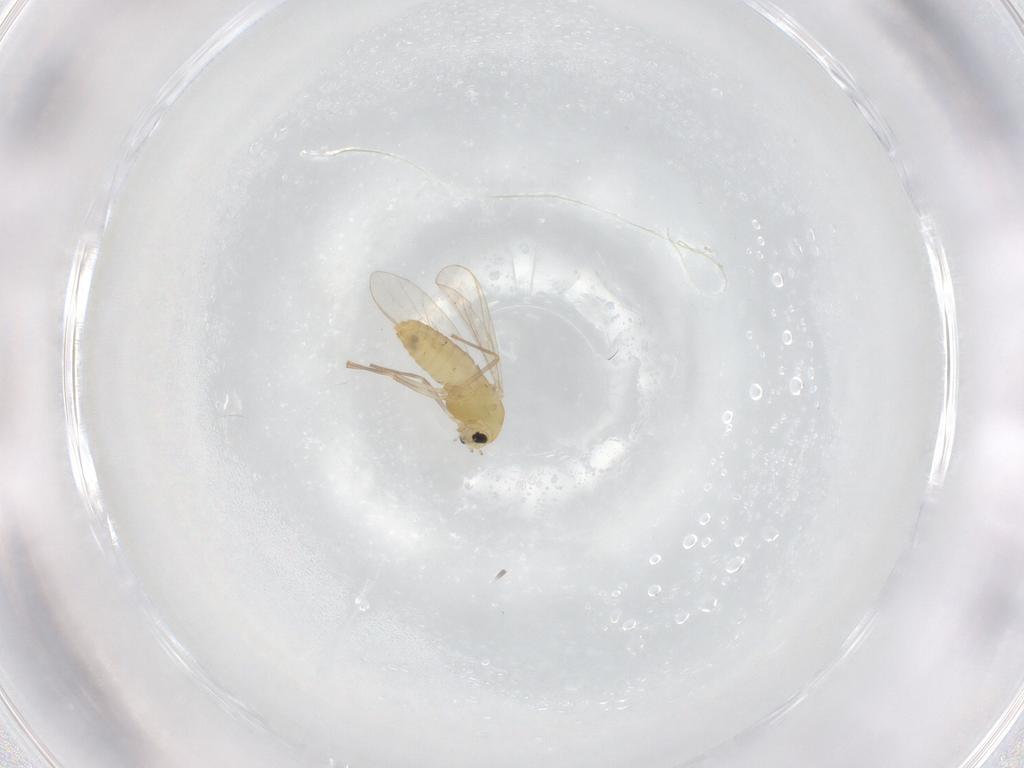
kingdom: Animalia
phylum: Arthropoda
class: Insecta
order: Diptera
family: Chironomidae
